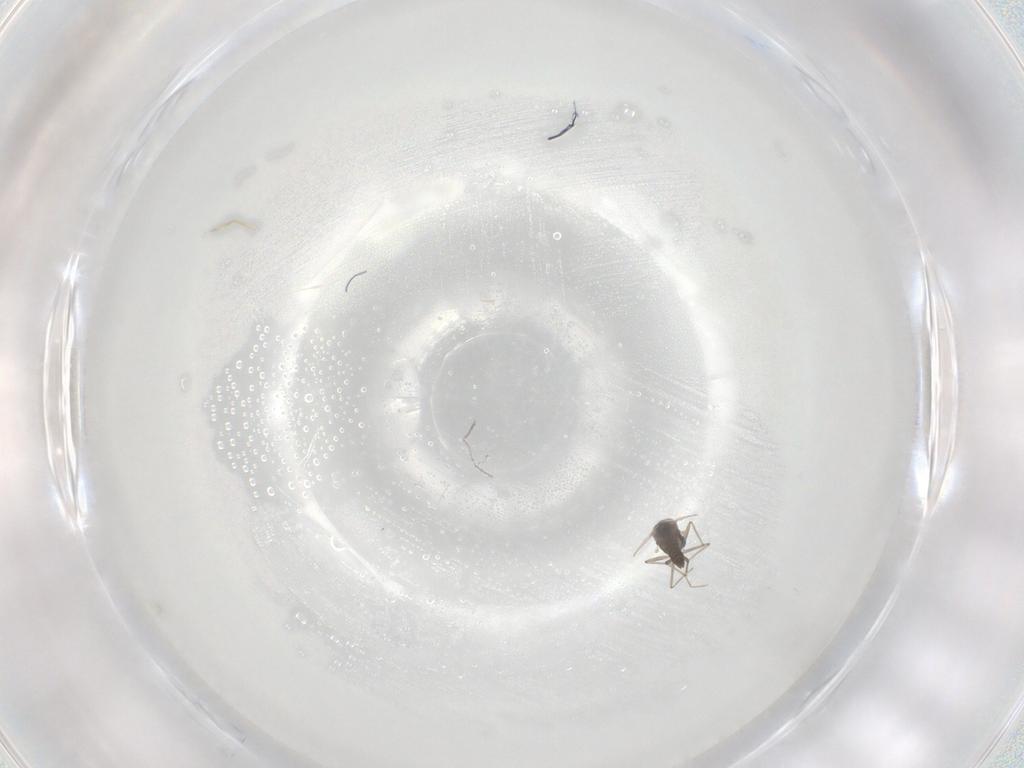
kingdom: Animalia
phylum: Arthropoda
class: Insecta
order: Diptera
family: Chironomidae
